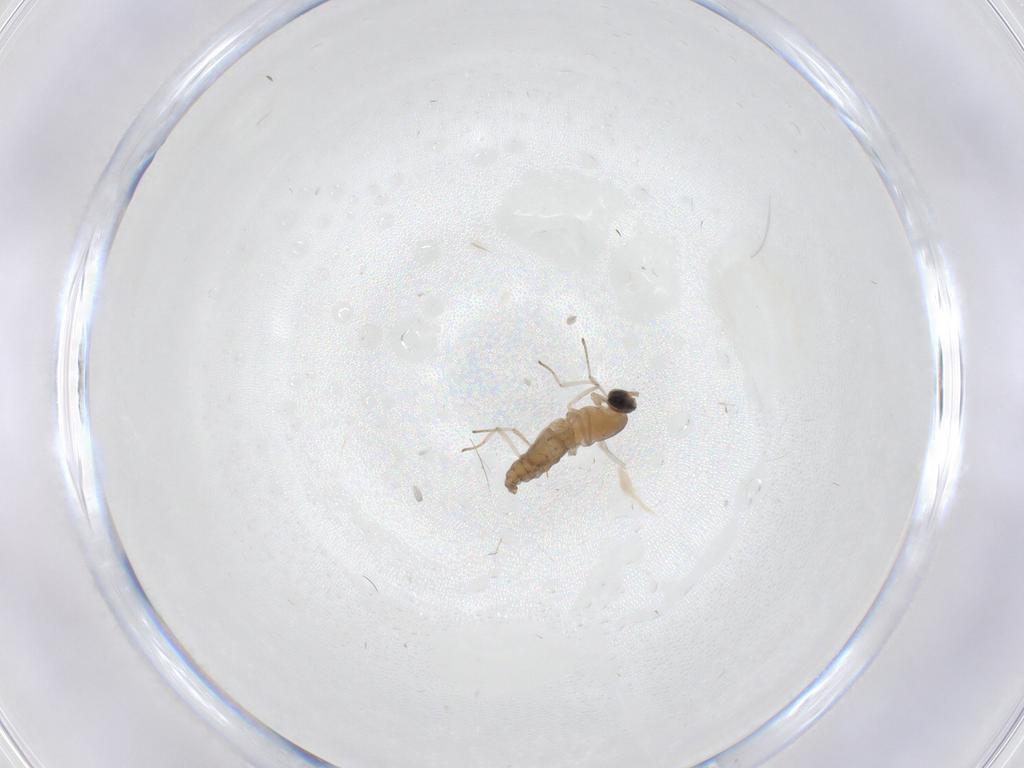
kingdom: Animalia
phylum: Arthropoda
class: Insecta
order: Diptera
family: Cecidomyiidae
